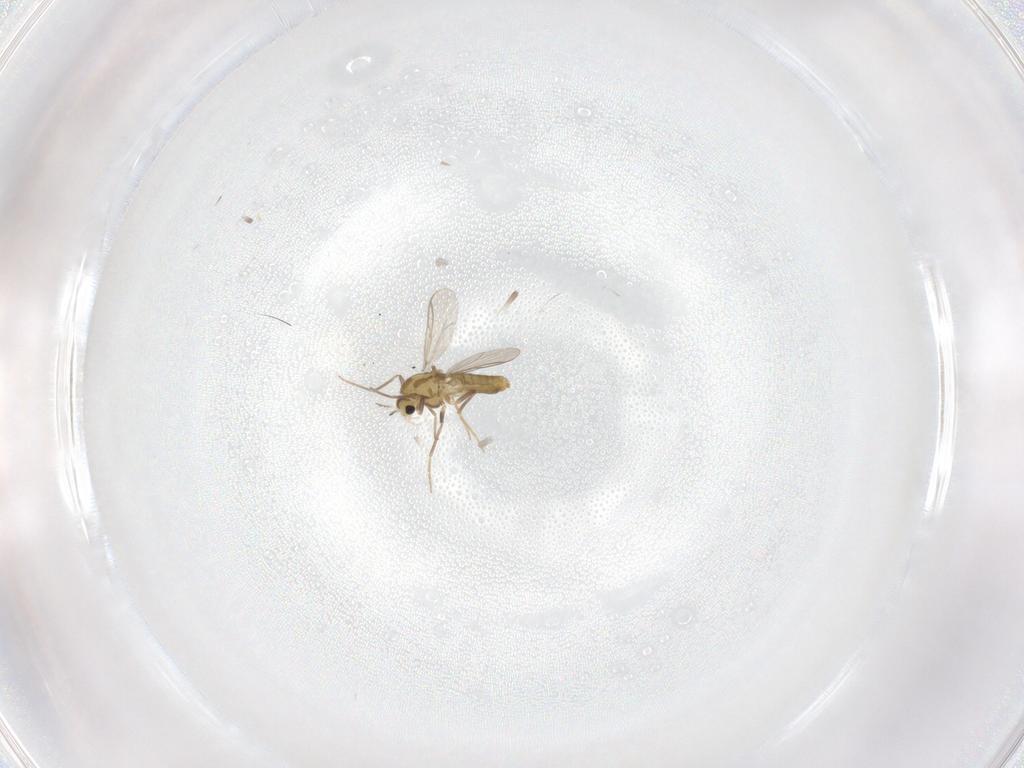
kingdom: Animalia
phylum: Arthropoda
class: Insecta
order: Diptera
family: Chironomidae
